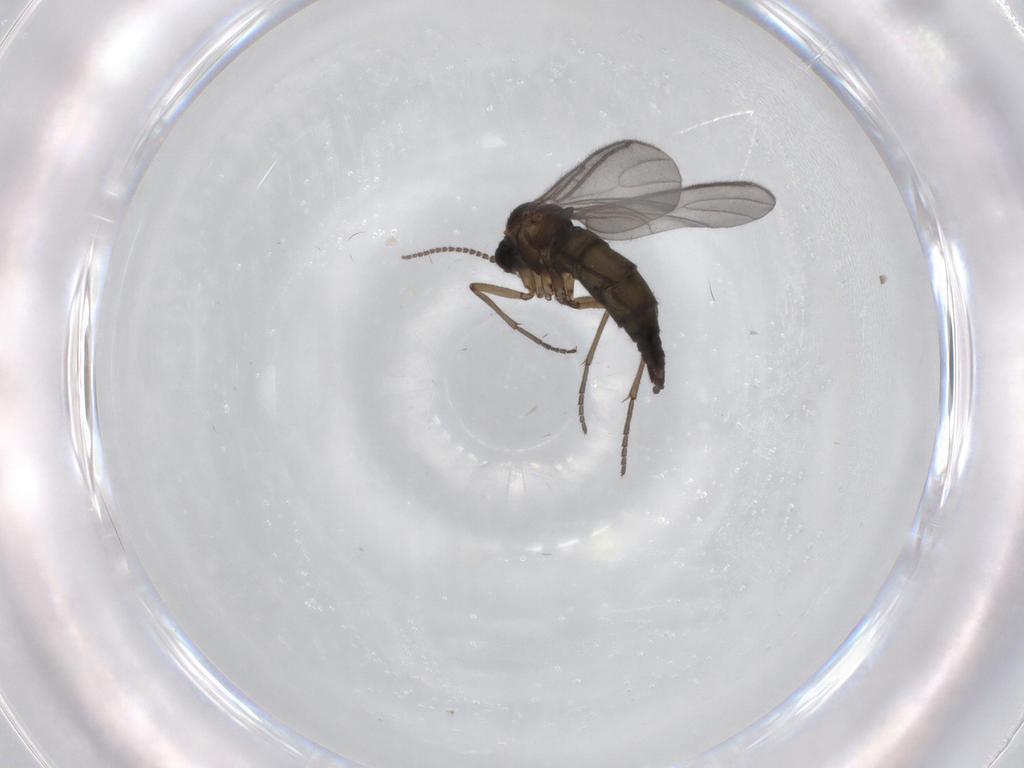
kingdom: Animalia
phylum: Arthropoda
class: Insecta
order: Diptera
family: Sciaridae
